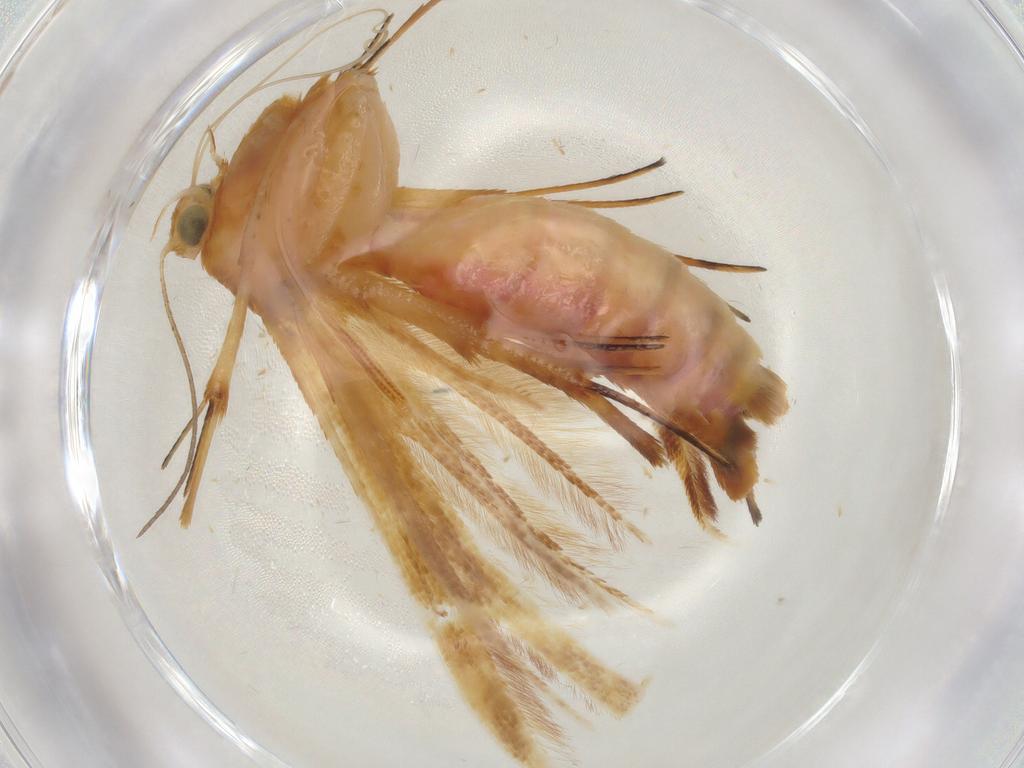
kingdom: Animalia
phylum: Arthropoda
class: Insecta
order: Lepidoptera
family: Geometridae
